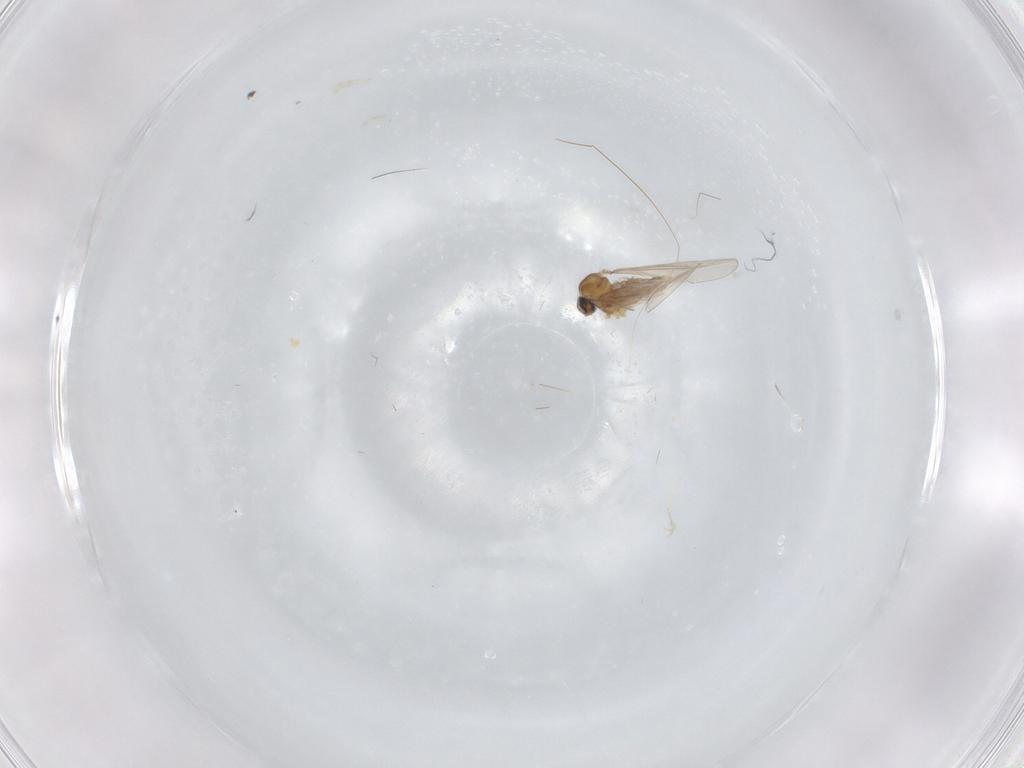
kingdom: Animalia
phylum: Arthropoda
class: Insecta
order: Diptera
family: Cecidomyiidae
